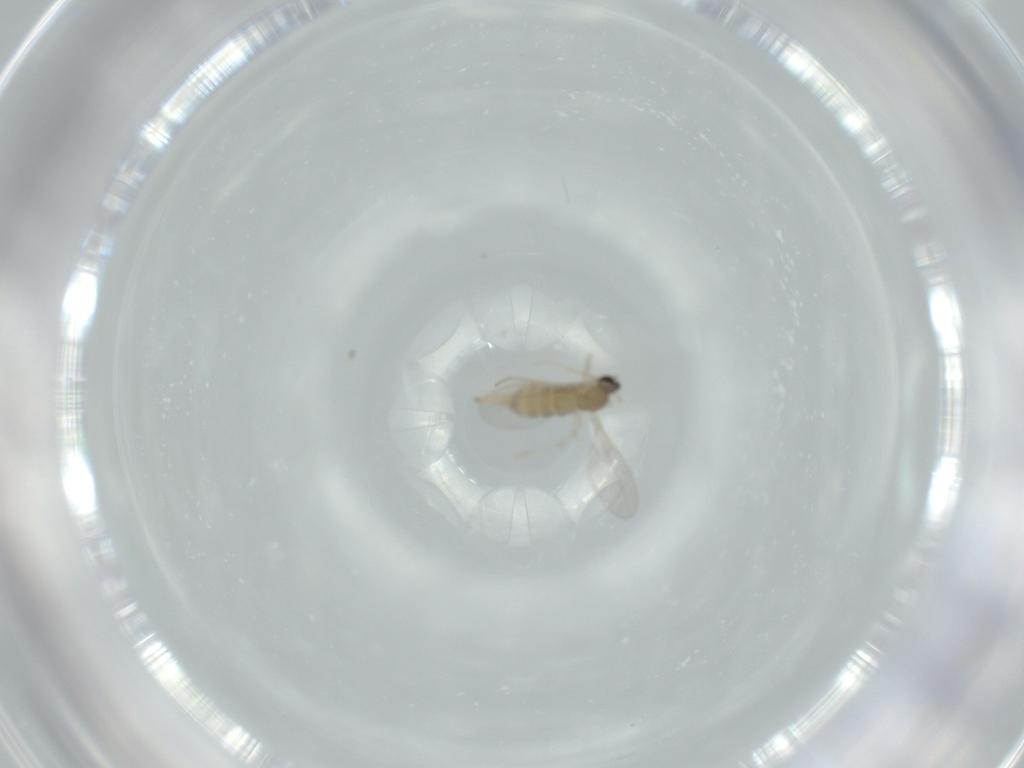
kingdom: Animalia
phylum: Arthropoda
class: Insecta
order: Diptera
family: Cecidomyiidae
